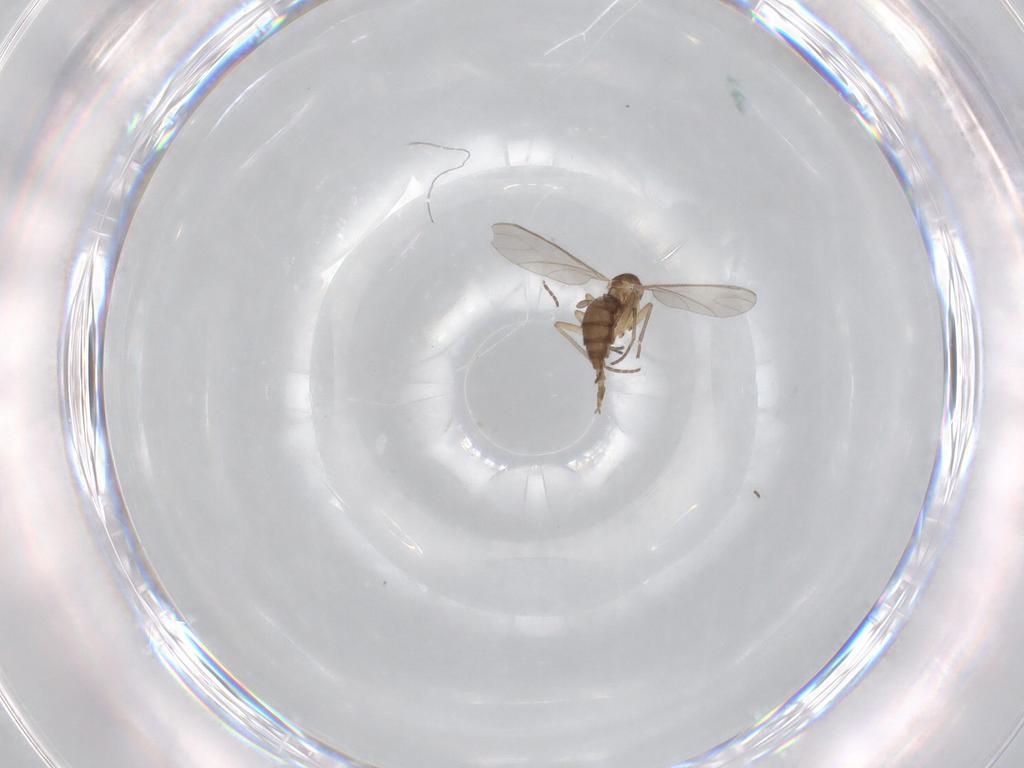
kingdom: Animalia
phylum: Arthropoda
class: Insecta
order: Diptera
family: Sciaridae
